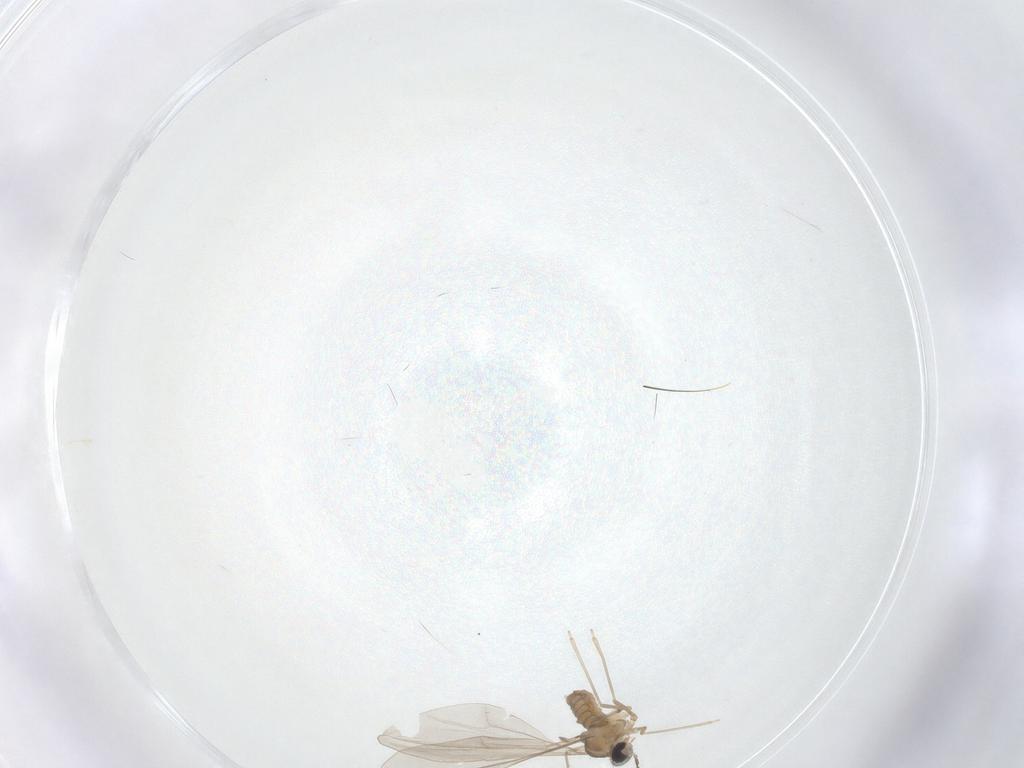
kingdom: Animalia
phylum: Arthropoda
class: Insecta
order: Diptera
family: Cecidomyiidae
